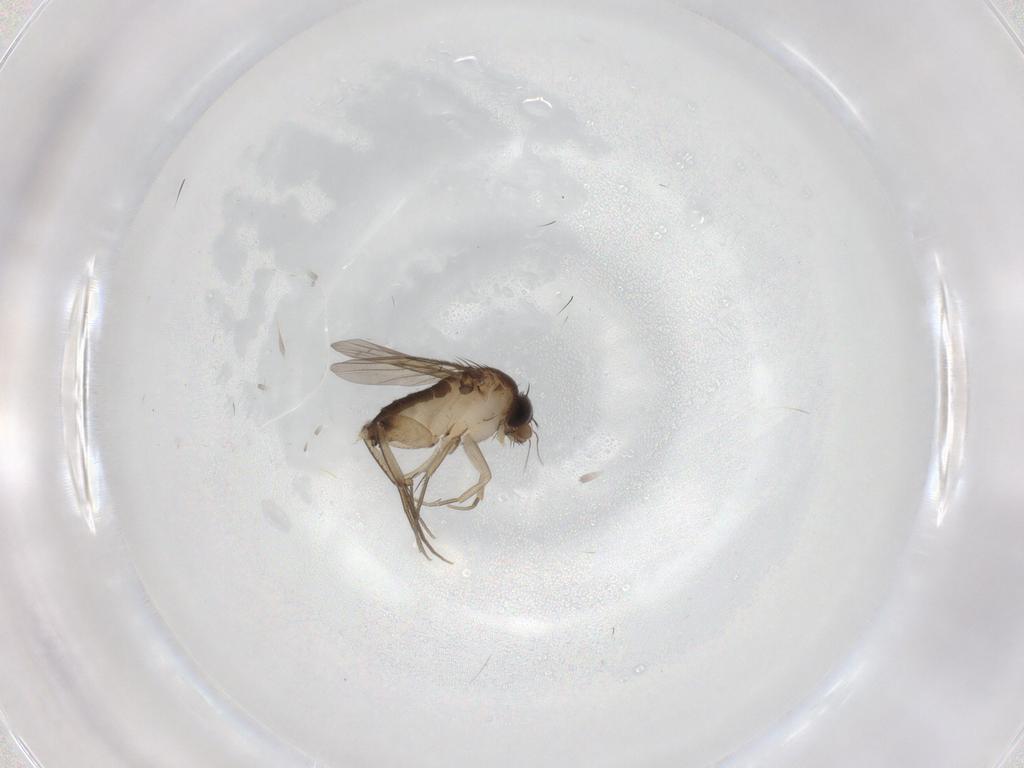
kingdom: Animalia
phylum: Arthropoda
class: Insecta
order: Diptera
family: Phoridae
